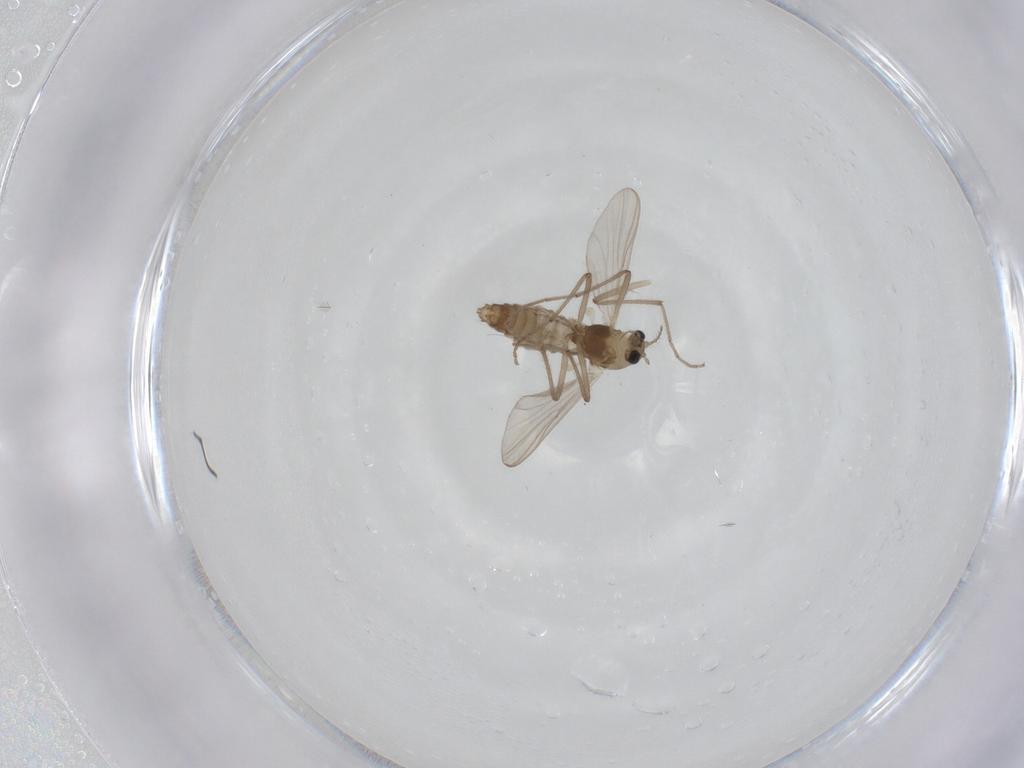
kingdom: Animalia
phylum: Arthropoda
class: Insecta
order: Diptera
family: Chironomidae
